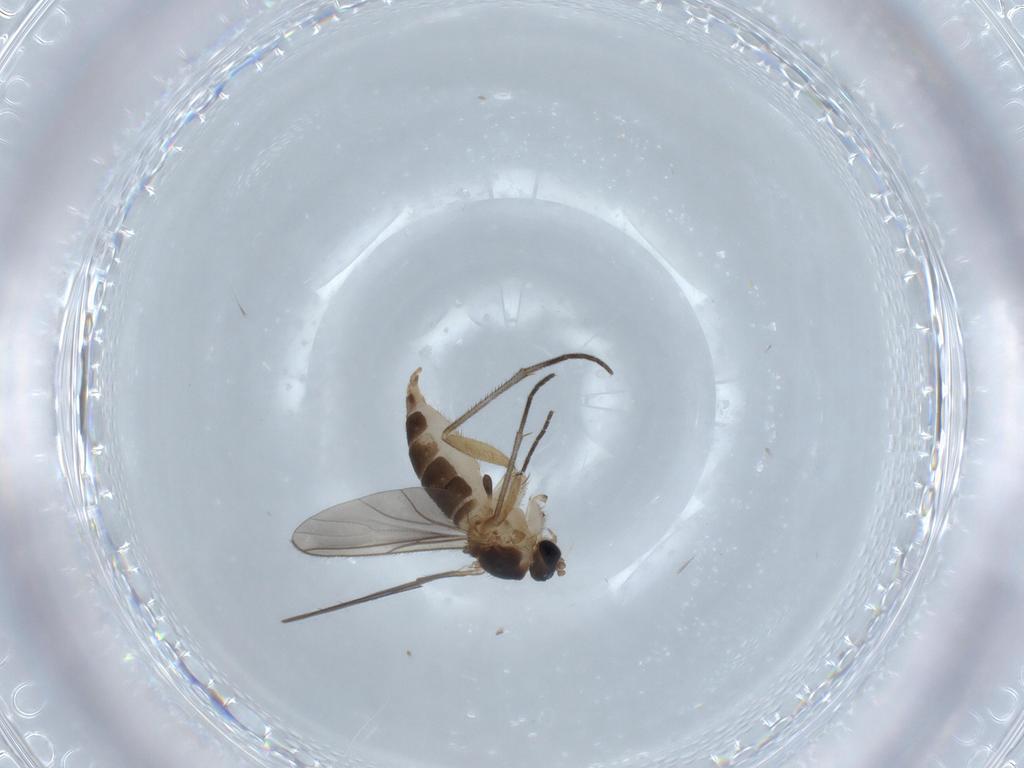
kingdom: Animalia
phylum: Arthropoda
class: Insecta
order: Diptera
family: Sciaridae
